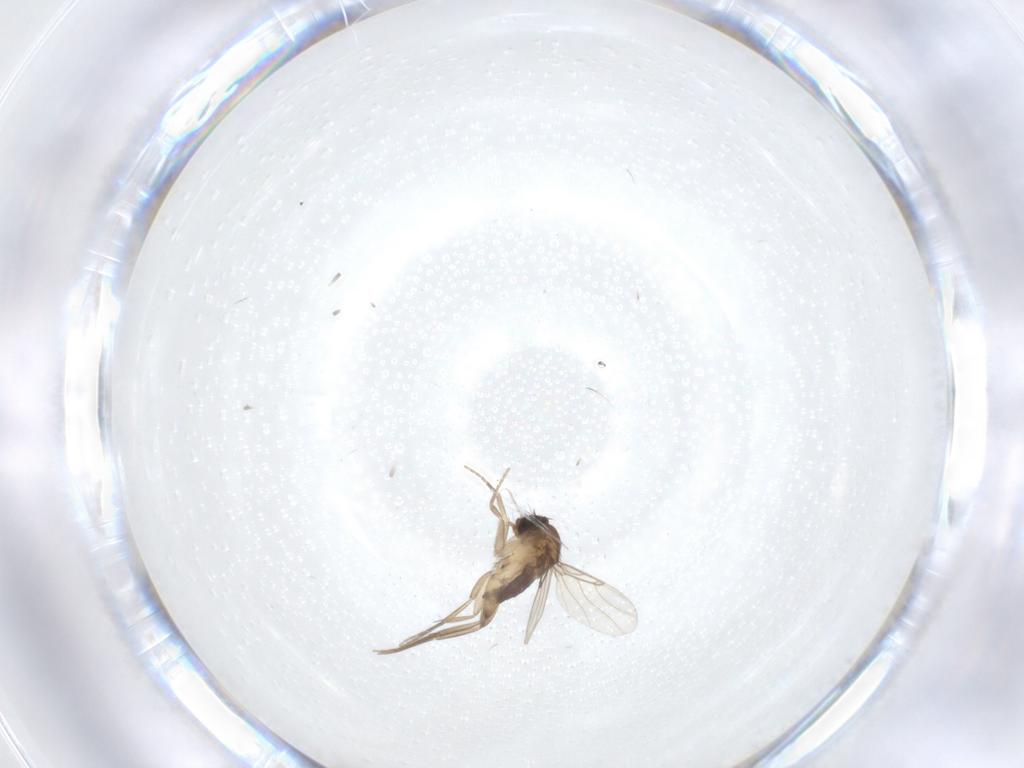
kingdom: Animalia
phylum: Arthropoda
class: Insecta
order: Diptera
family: Phoridae
